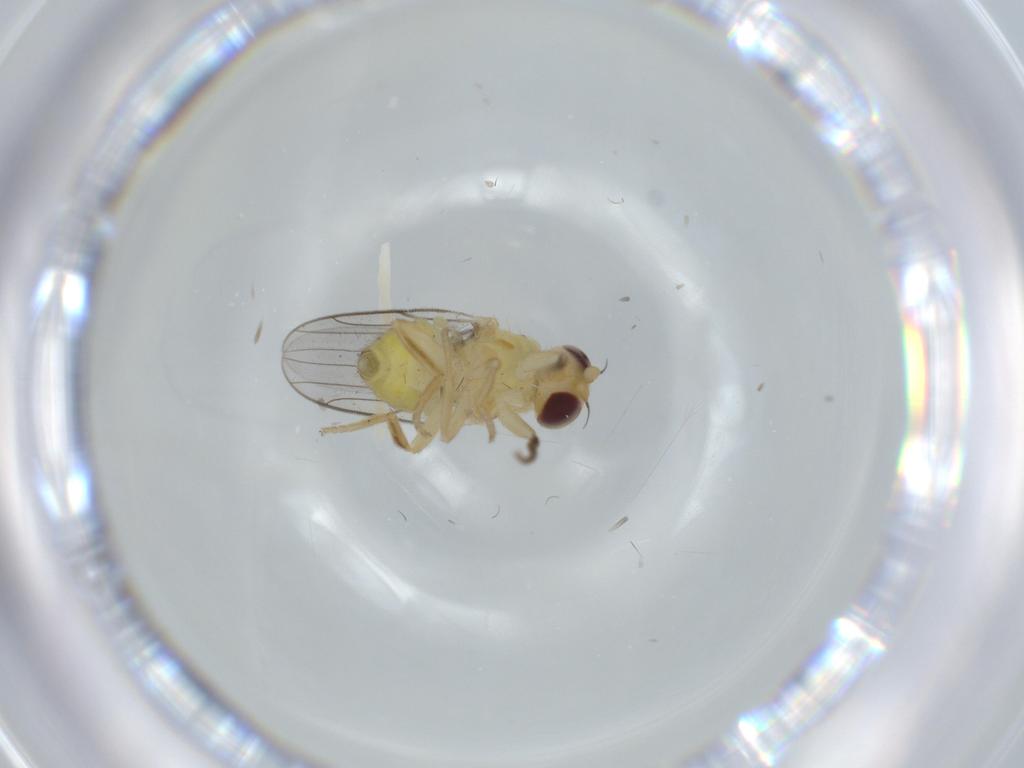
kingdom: Animalia
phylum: Arthropoda
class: Insecta
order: Diptera
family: Chloropidae
